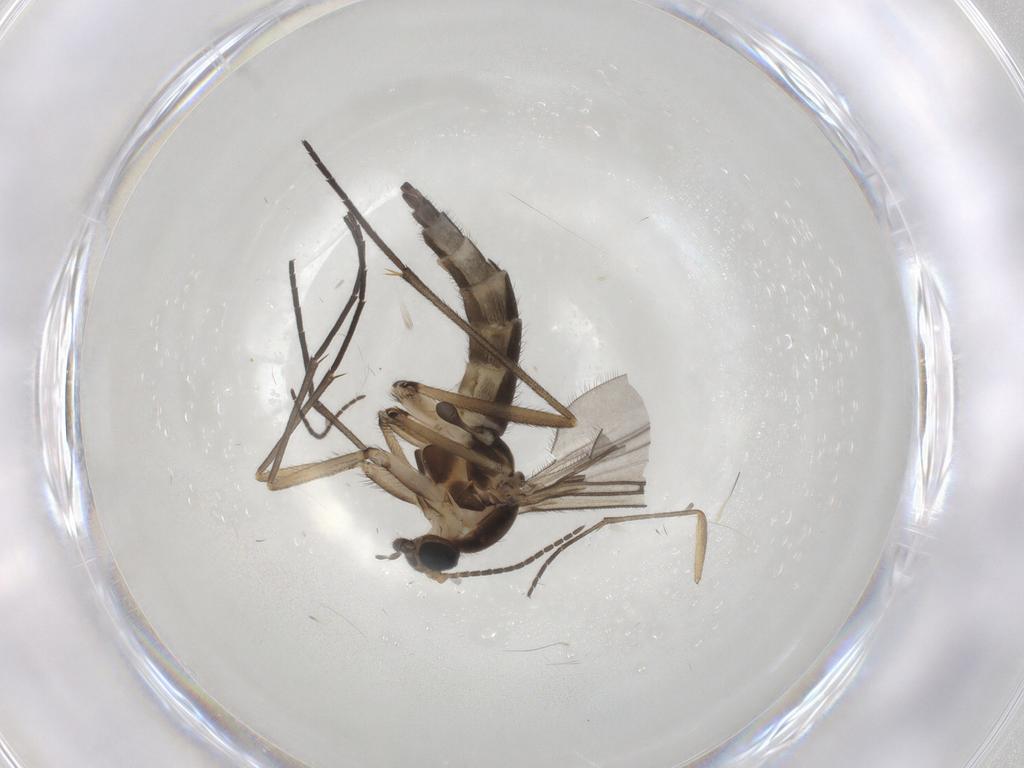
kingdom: Animalia
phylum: Arthropoda
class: Insecta
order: Diptera
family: Sciaridae
